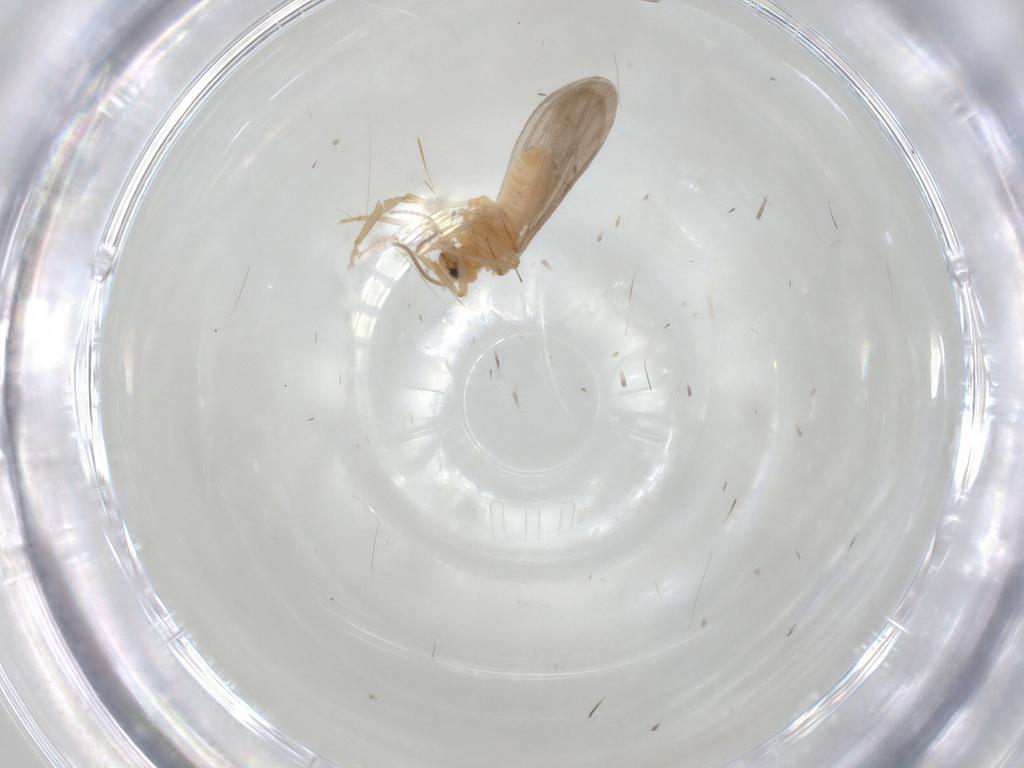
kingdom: Animalia
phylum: Arthropoda
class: Insecta
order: Neuroptera
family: Coniopterygidae
